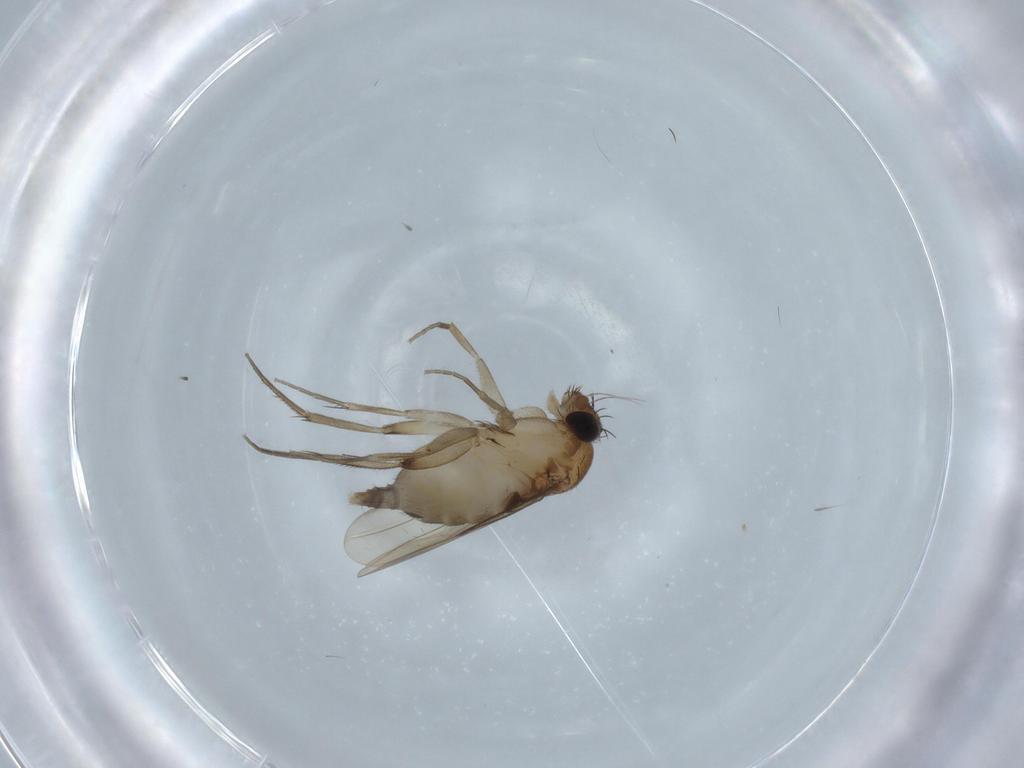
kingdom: Animalia
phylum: Arthropoda
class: Insecta
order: Diptera
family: Phoridae
